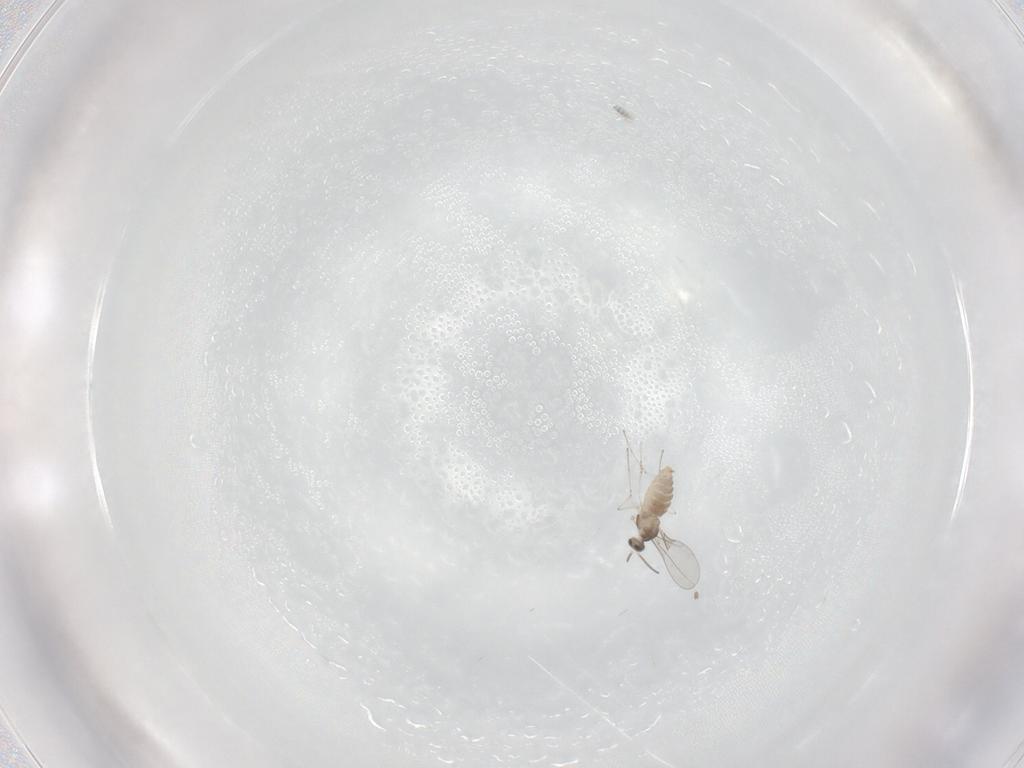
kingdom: Animalia
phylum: Arthropoda
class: Insecta
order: Diptera
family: Cecidomyiidae
